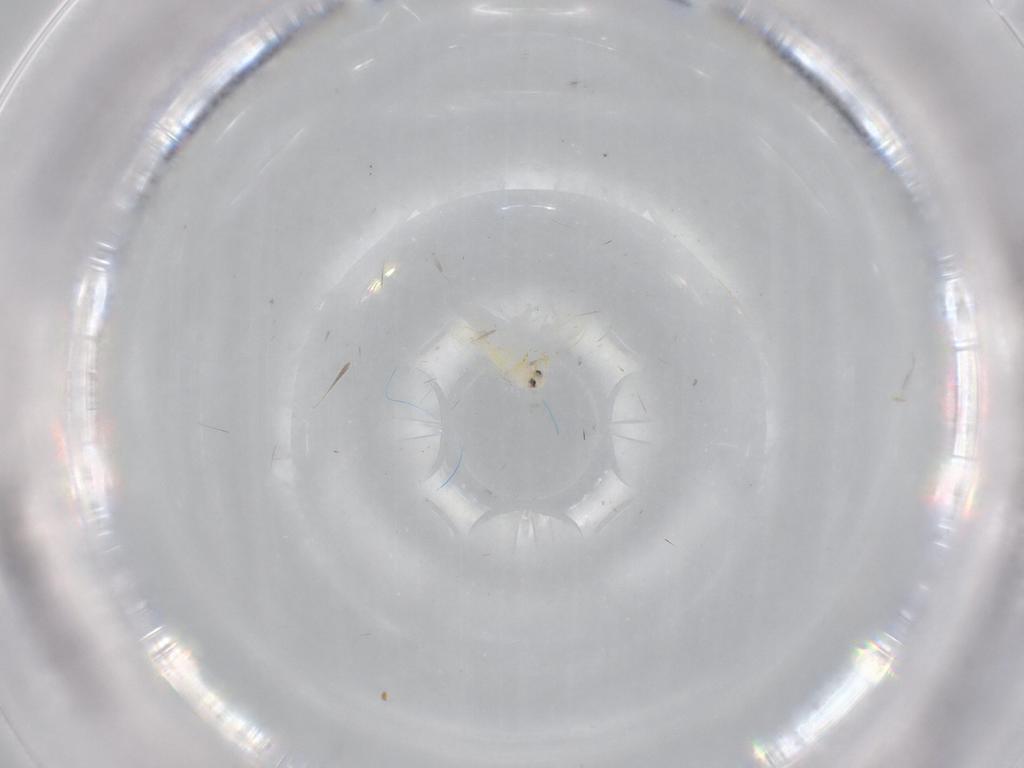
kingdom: Animalia
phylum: Arthropoda
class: Insecta
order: Hemiptera
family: Aleyrodidae
